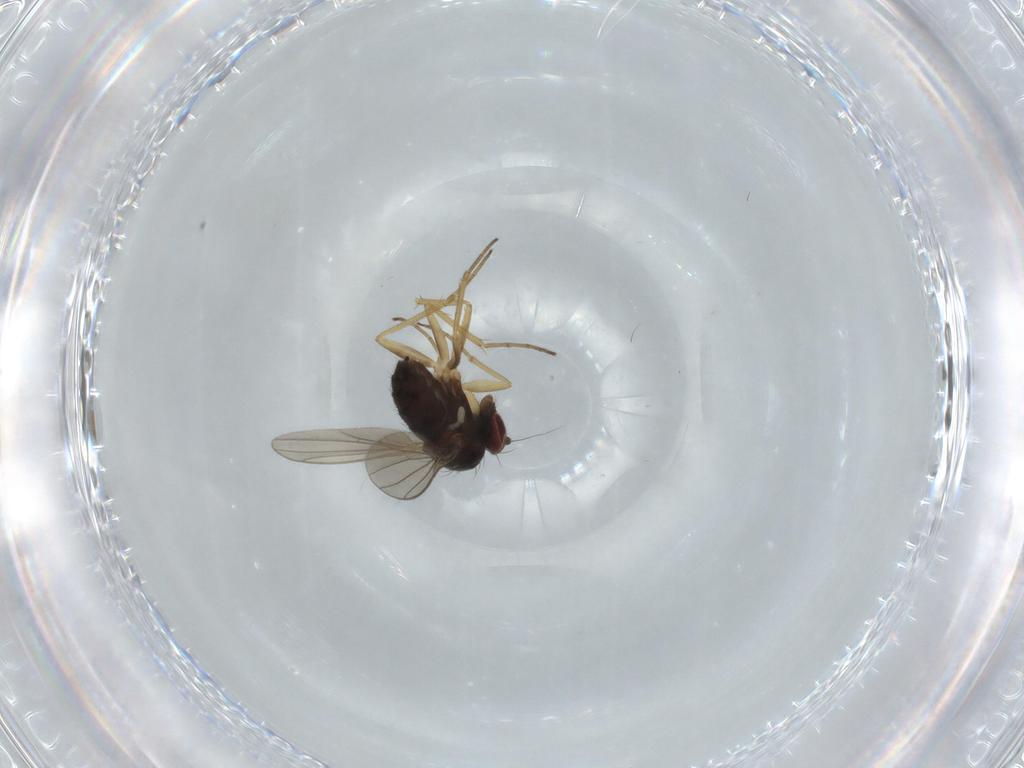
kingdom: Animalia
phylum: Arthropoda
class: Insecta
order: Diptera
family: Dolichopodidae
